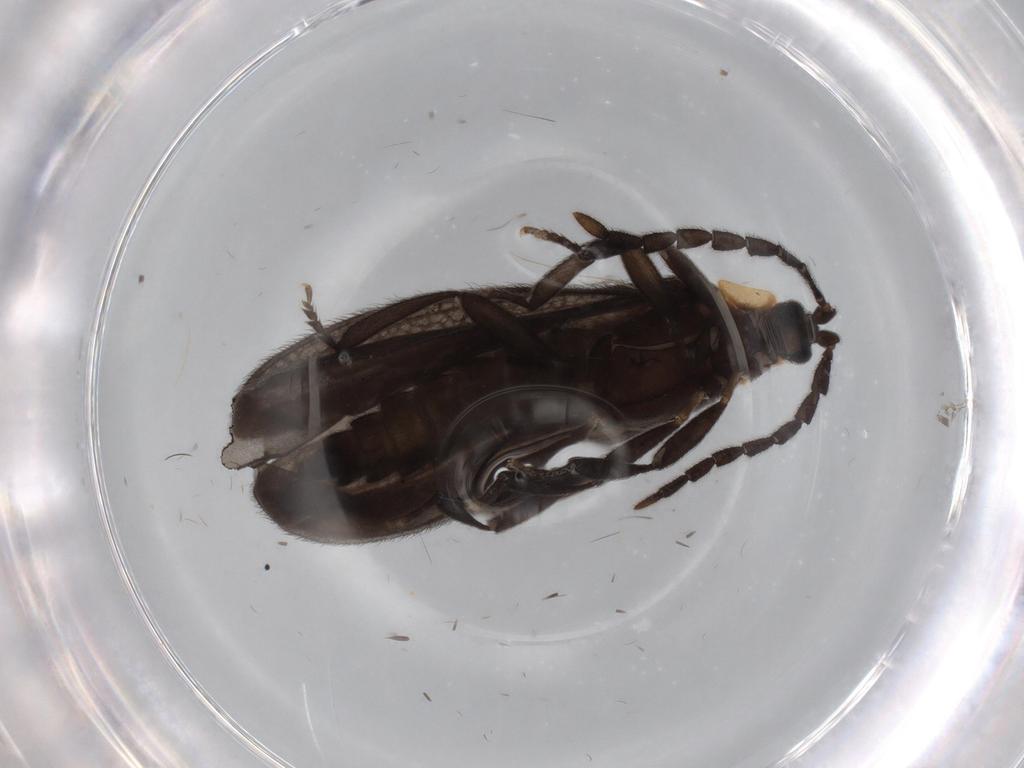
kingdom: Animalia
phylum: Arthropoda
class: Insecta
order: Coleoptera
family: Lycidae
